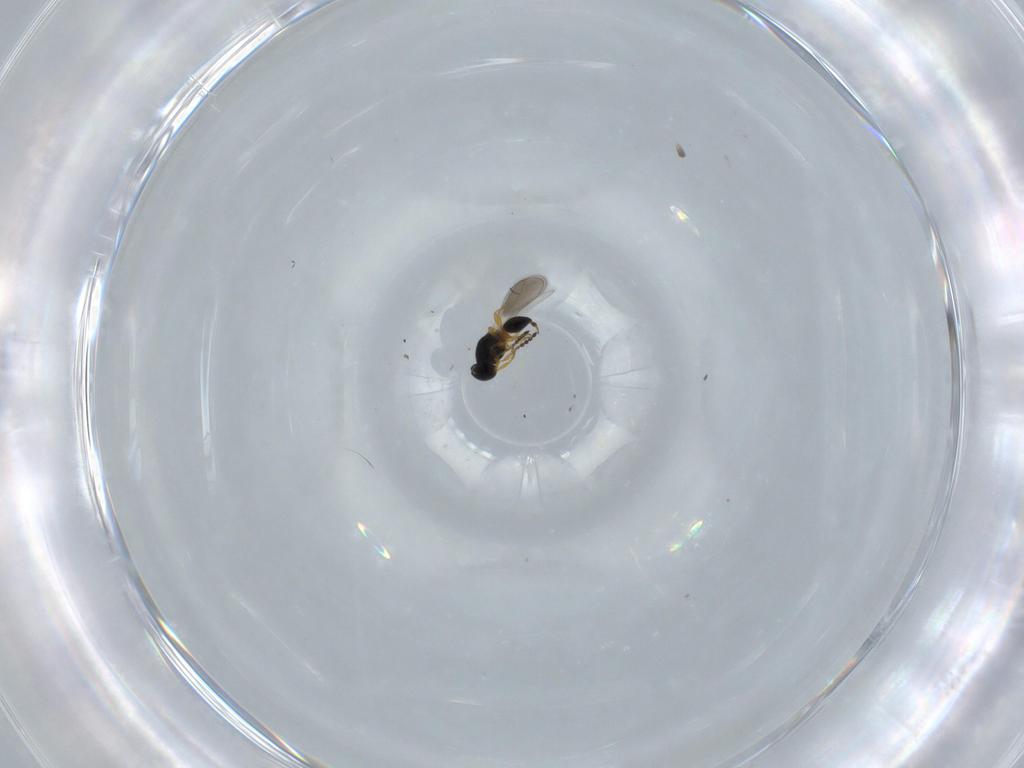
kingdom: Animalia
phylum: Arthropoda
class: Insecta
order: Hymenoptera
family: Platygastridae
